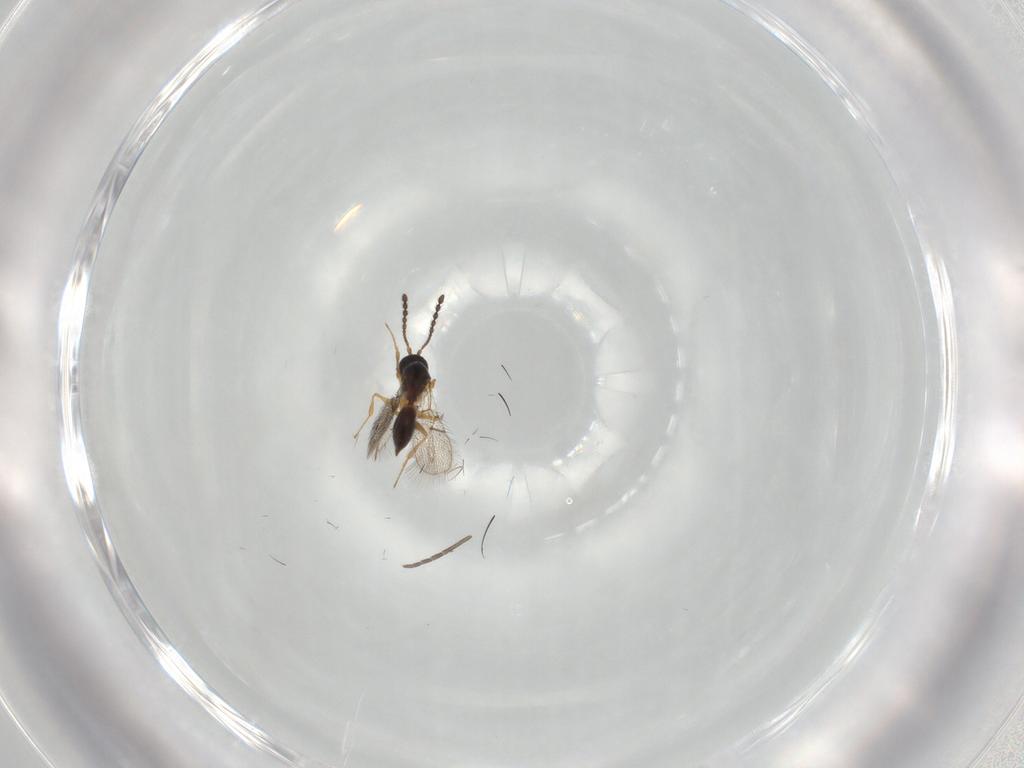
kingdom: Animalia
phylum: Arthropoda
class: Insecta
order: Hymenoptera
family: Figitidae
